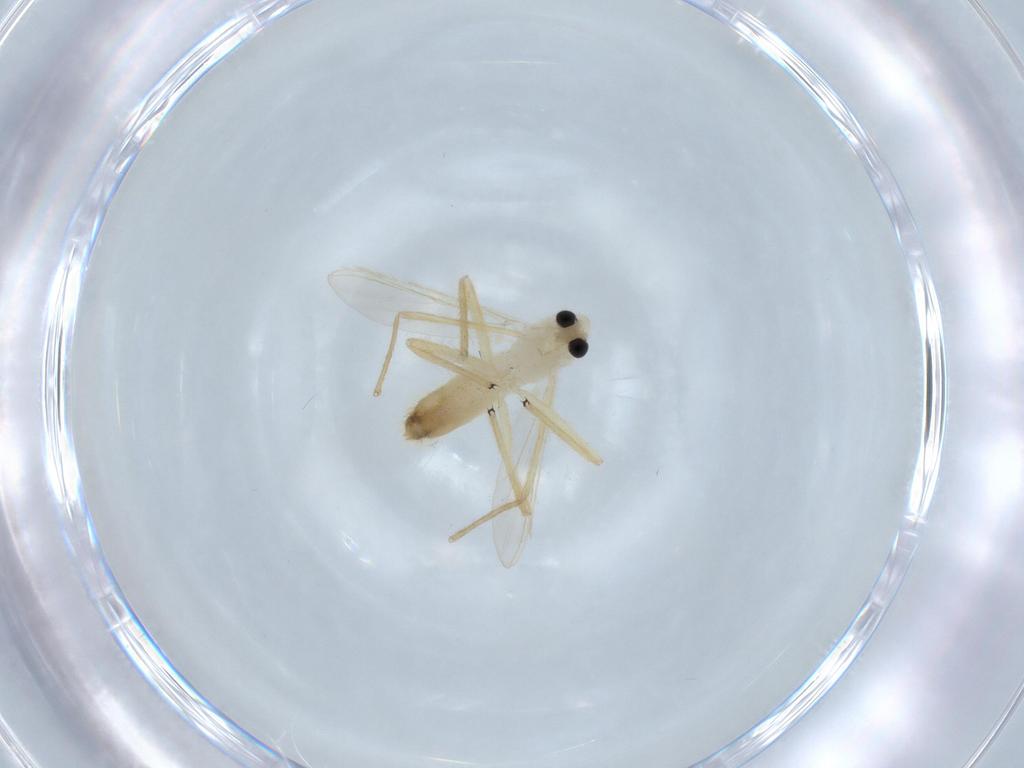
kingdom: Animalia
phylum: Arthropoda
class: Insecta
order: Diptera
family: Chironomidae
